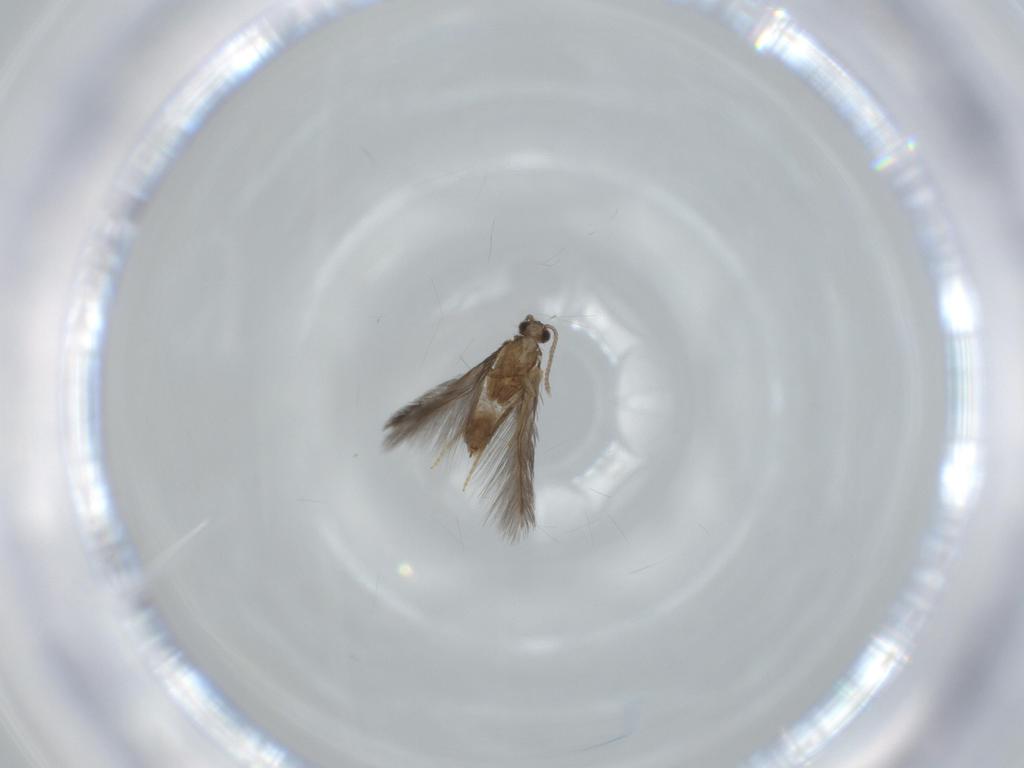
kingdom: Animalia
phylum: Arthropoda
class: Insecta
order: Trichoptera
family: Hydroptilidae
